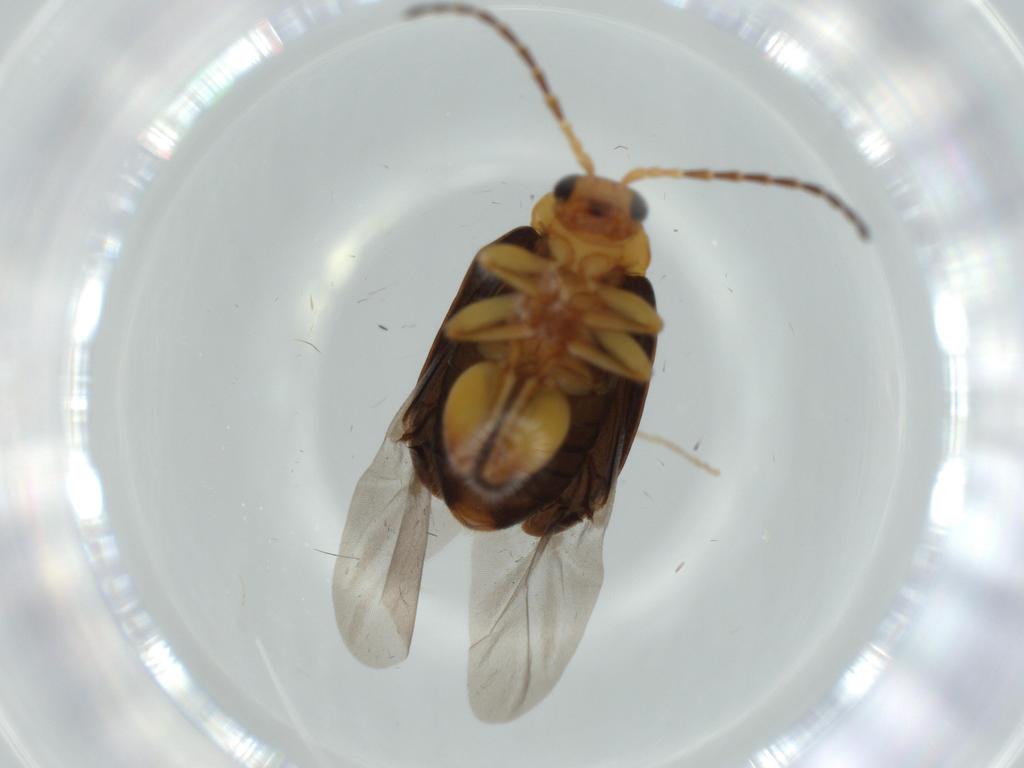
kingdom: Animalia
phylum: Arthropoda
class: Insecta
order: Coleoptera
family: Chrysomelidae
